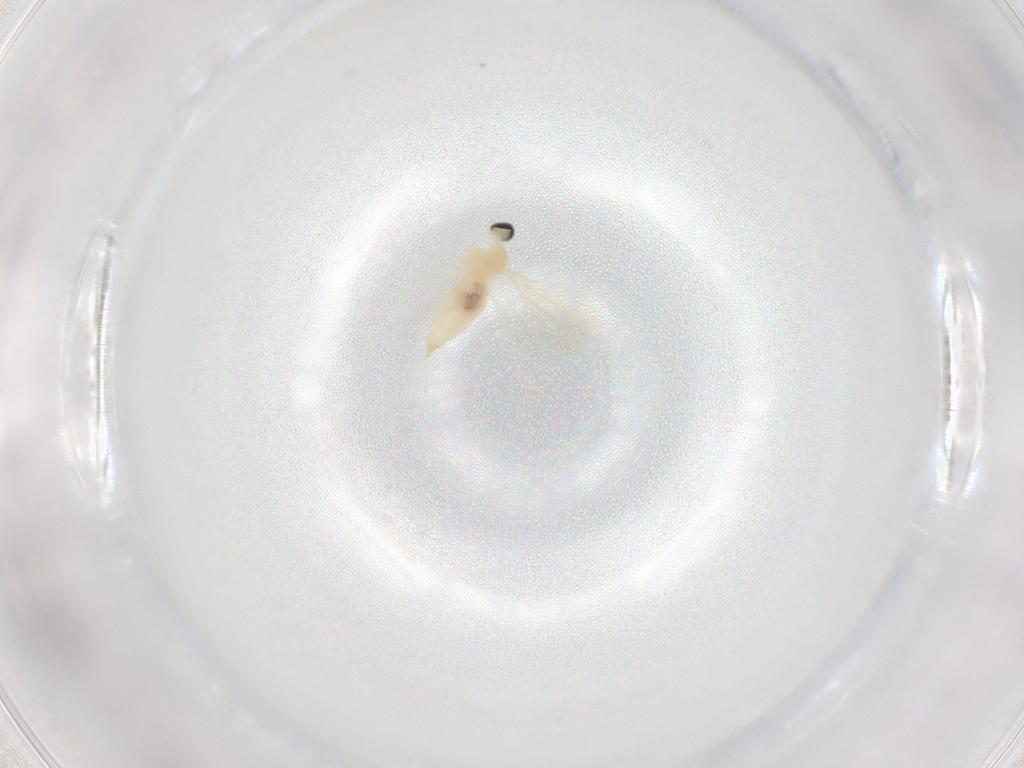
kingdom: Animalia
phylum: Arthropoda
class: Insecta
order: Diptera
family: Cecidomyiidae
